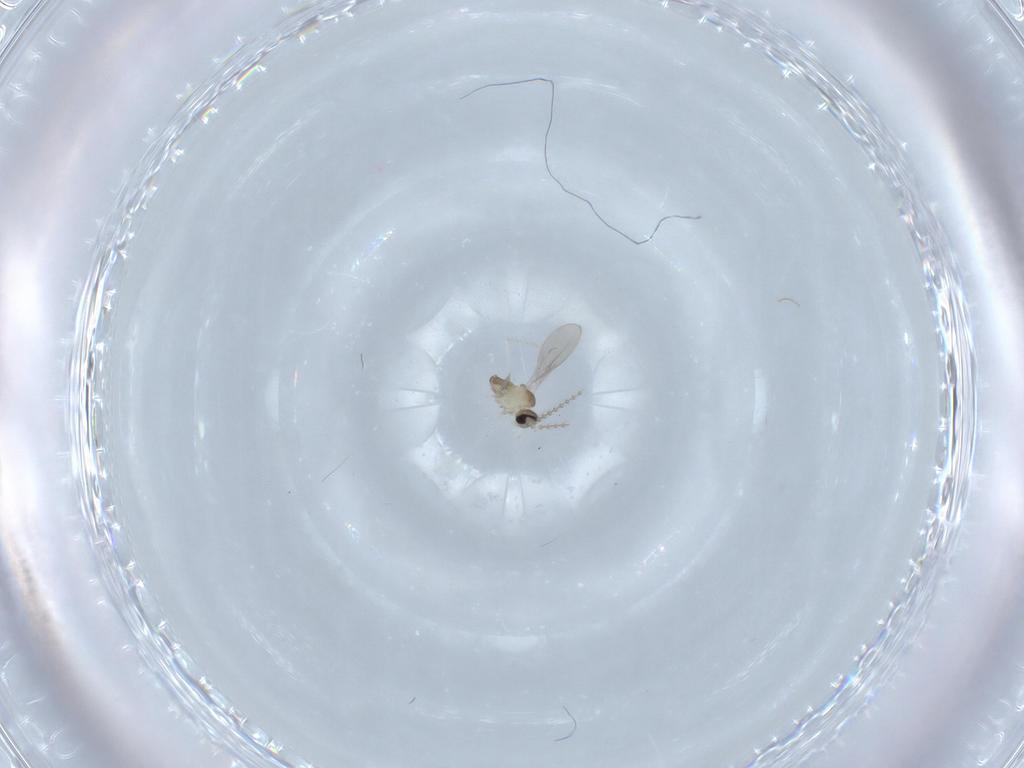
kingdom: Animalia
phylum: Arthropoda
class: Insecta
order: Diptera
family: Cecidomyiidae
